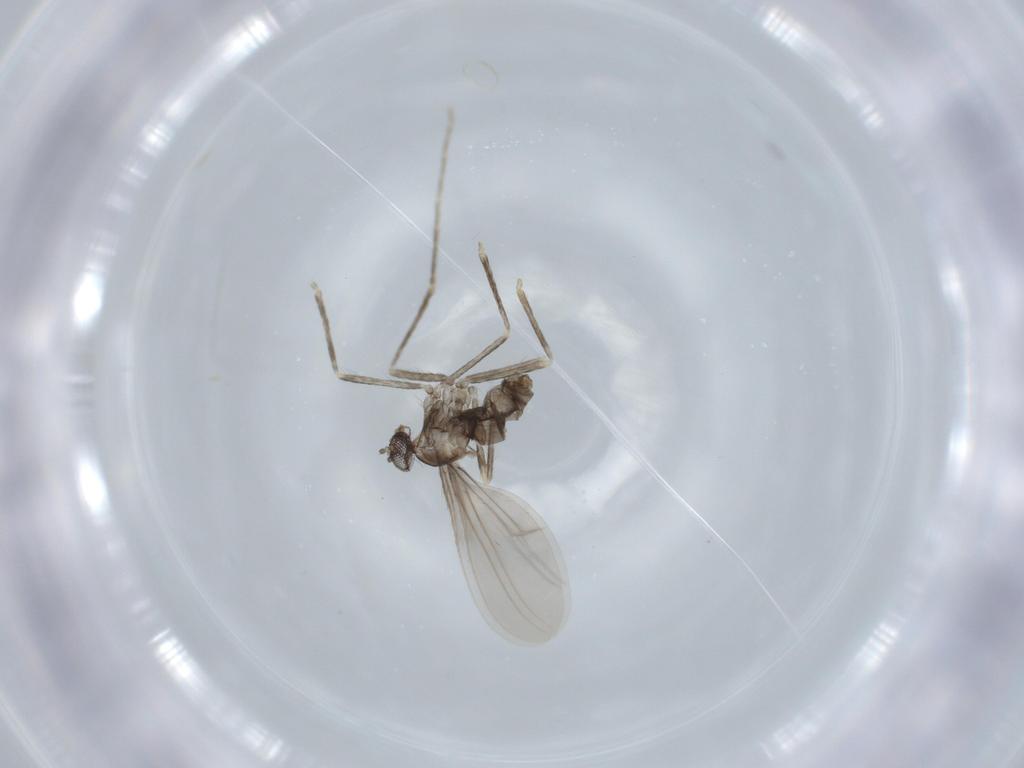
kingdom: Animalia
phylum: Arthropoda
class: Insecta
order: Diptera
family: Cecidomyiidae
